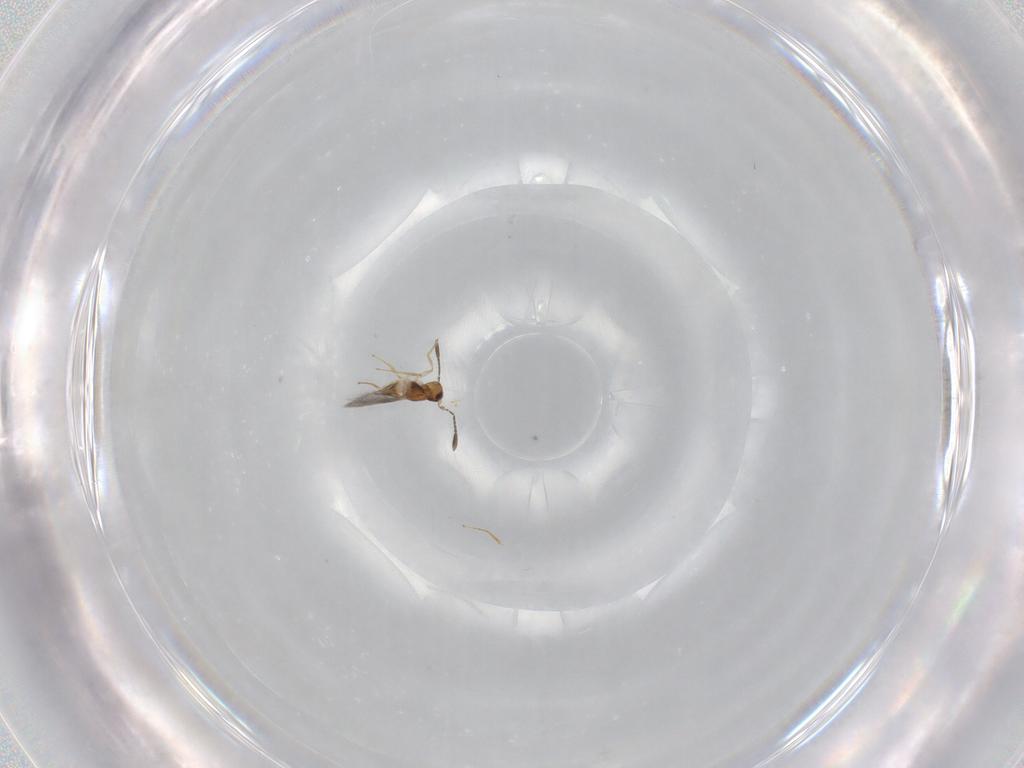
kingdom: Animalia
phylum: Arthropoda
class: Insecta
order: Hymenoptera
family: Mymaridae
